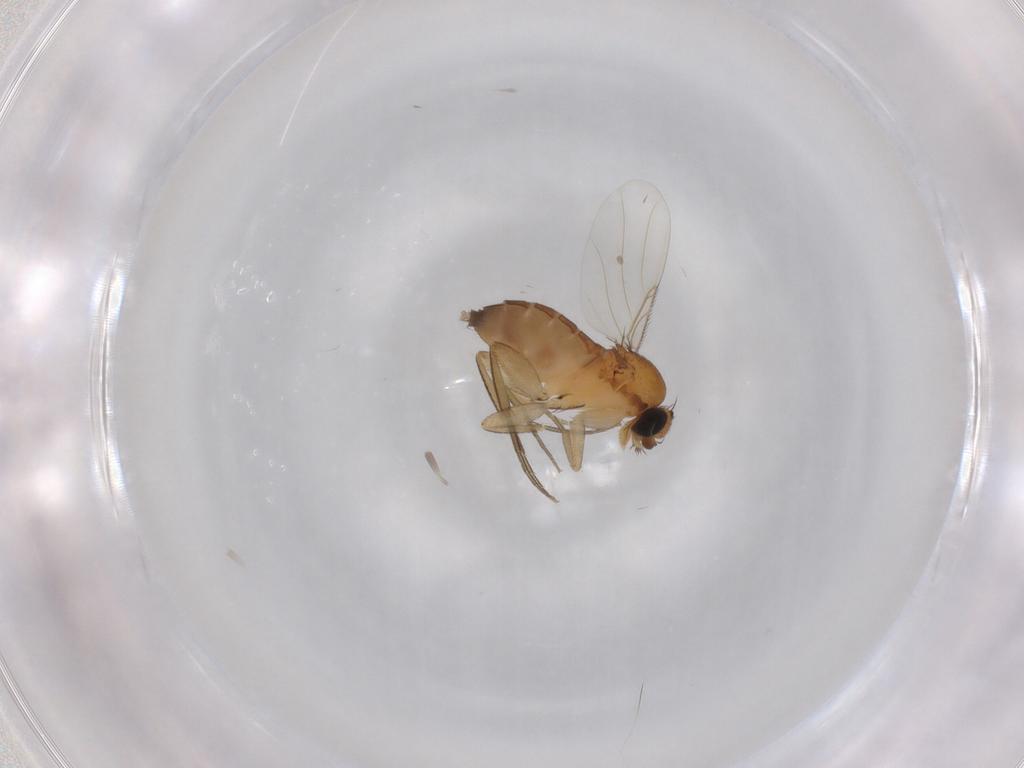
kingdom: Animalia
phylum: Arthropoda
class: Insecta
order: Diptera
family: Phoridae
